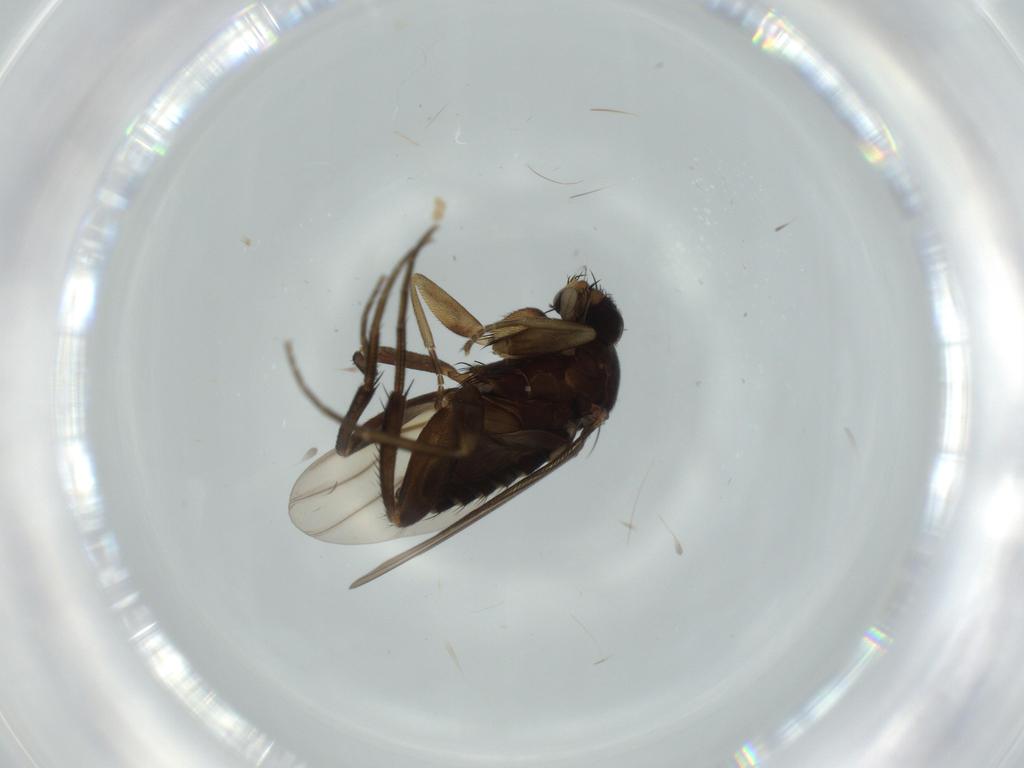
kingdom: Animalia
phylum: Arthropoda
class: Insecta
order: Diptera
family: Phoridae
